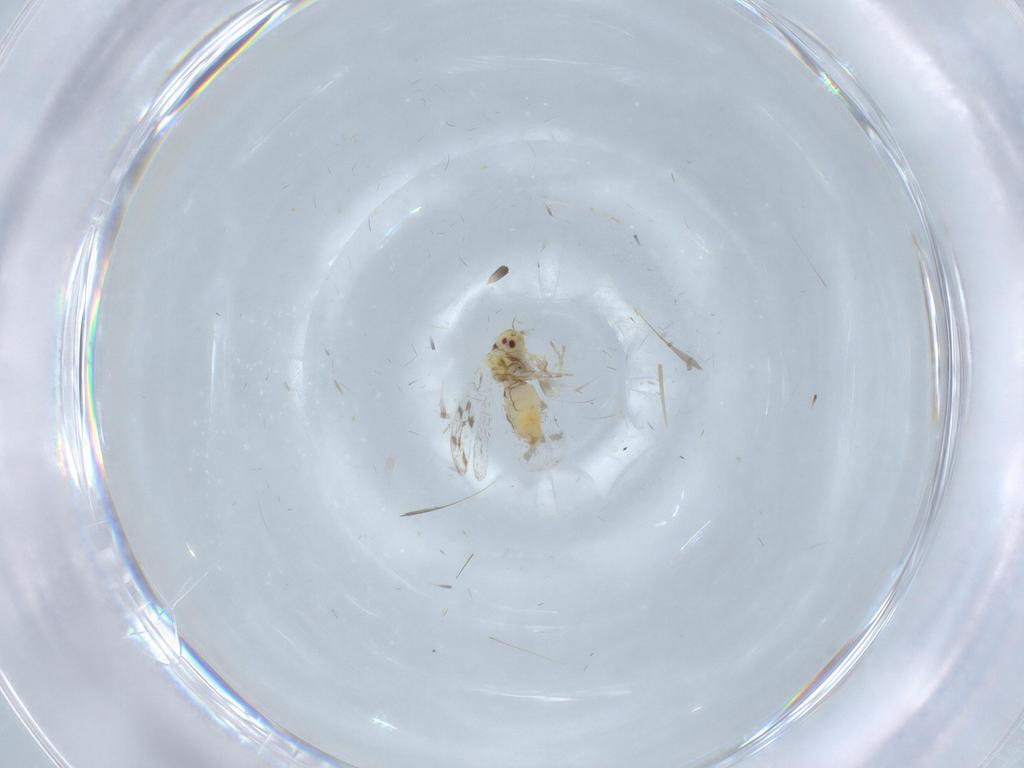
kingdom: Animalia
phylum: Arthropoda
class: Insecta
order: Hemiptera
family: Aleyrodidae
